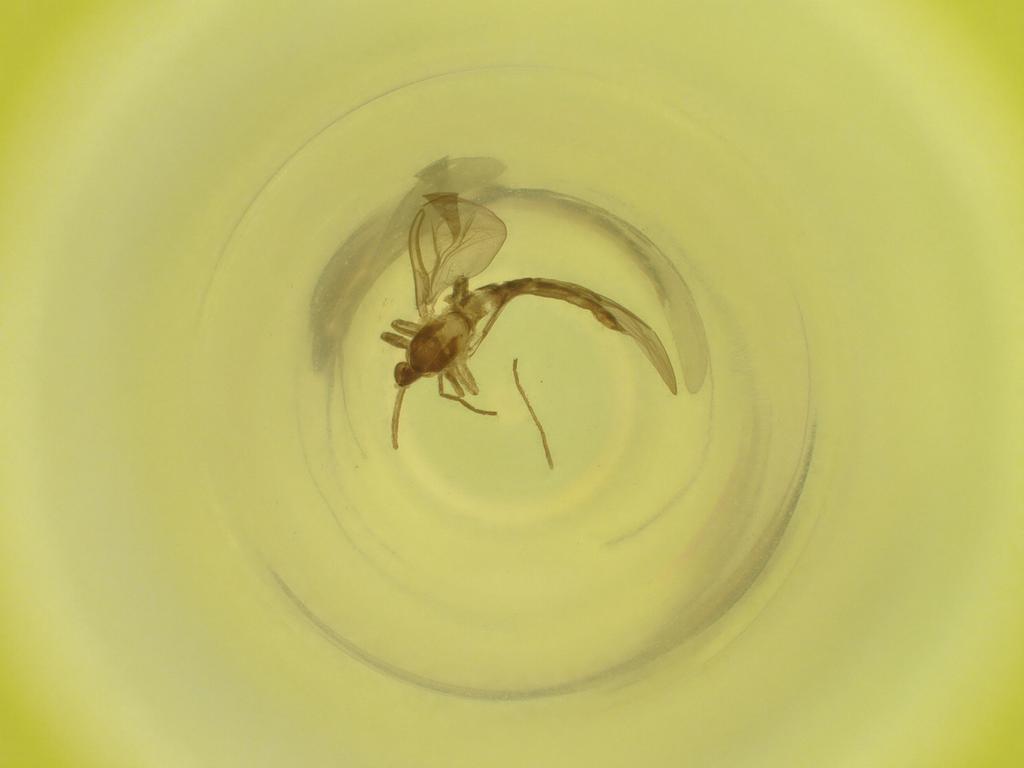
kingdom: Animalia
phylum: Arthropoda
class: Insecta
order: Diptera
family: Cecidomyiidae
